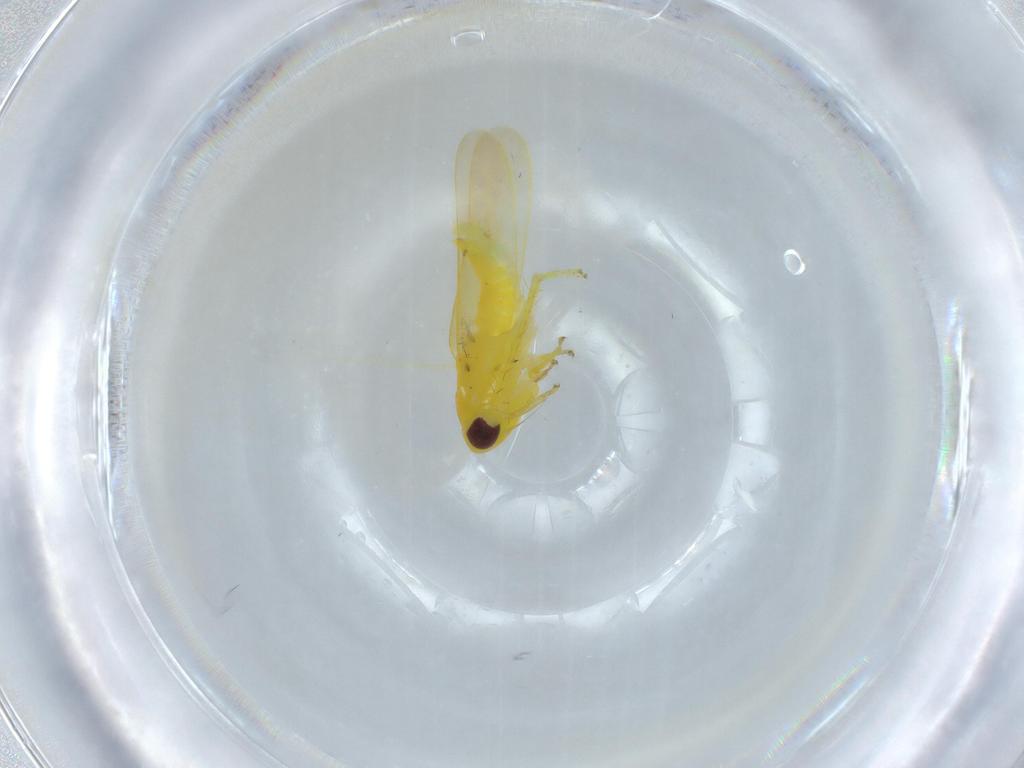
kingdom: Animalia
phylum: Arthropoda
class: Insecta
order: Hemiptera
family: Cicadellidae
